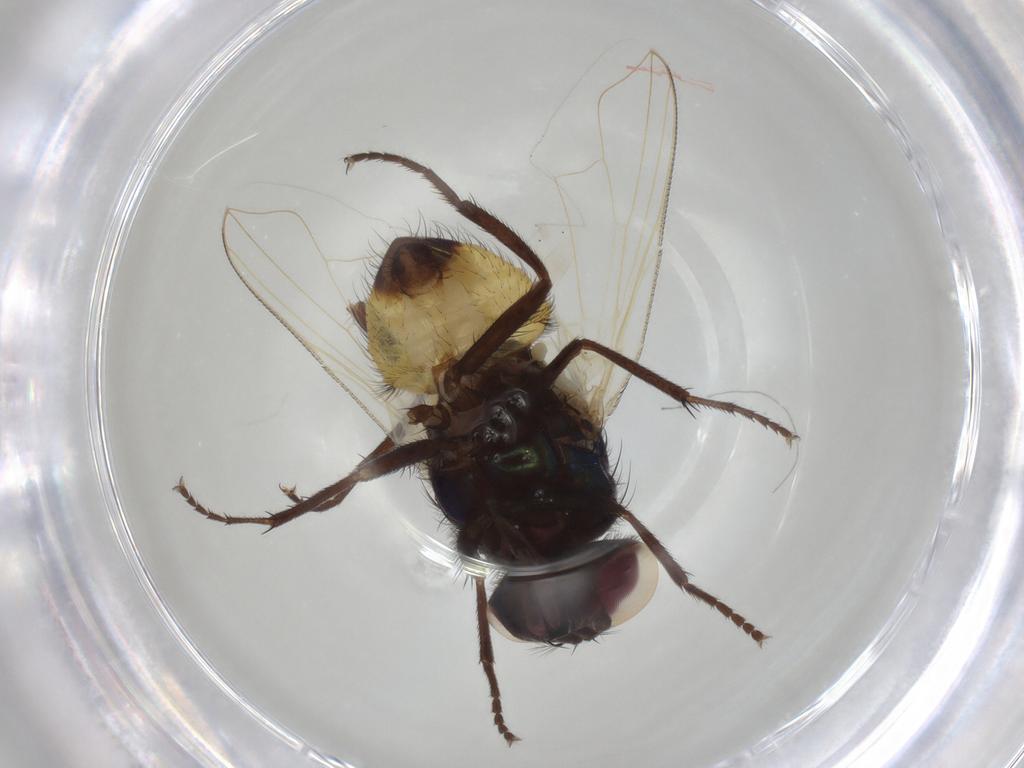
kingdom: Animalia
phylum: Arthropoda
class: Insecta
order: Diptera
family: Muscidae
